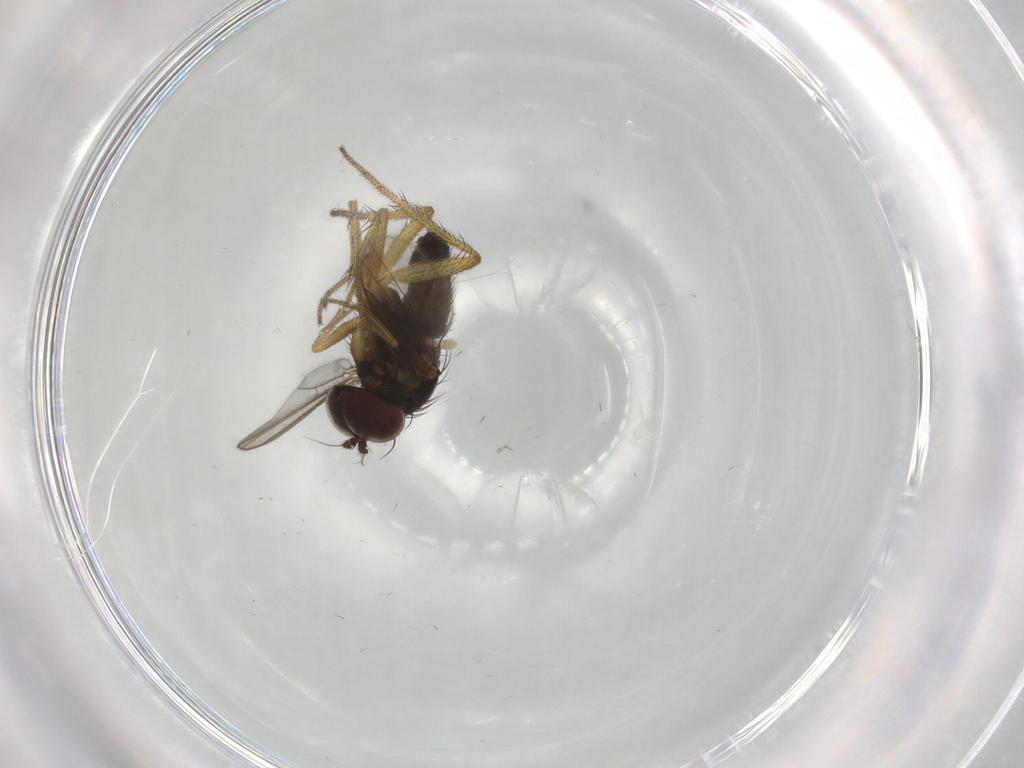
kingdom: Animalia
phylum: Arthropoda
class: Insecta
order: Diptera
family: Dolichopodidae
